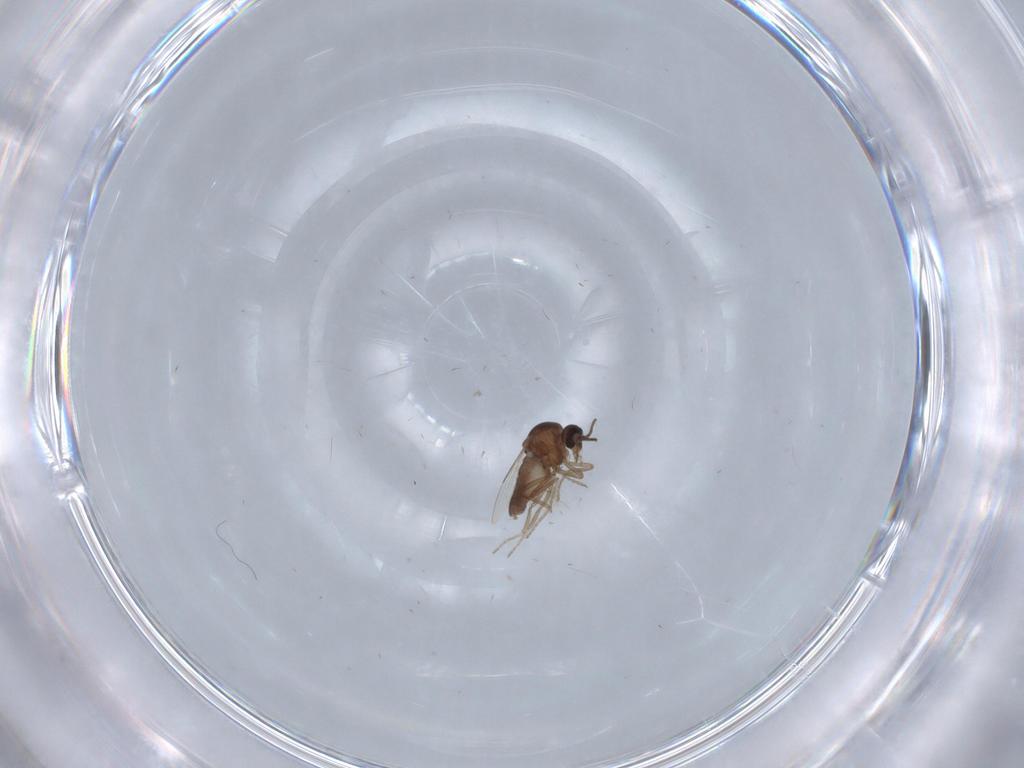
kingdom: Animalia
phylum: Arthropoda
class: Insecta
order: Diptera
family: Ceratopogonidae
